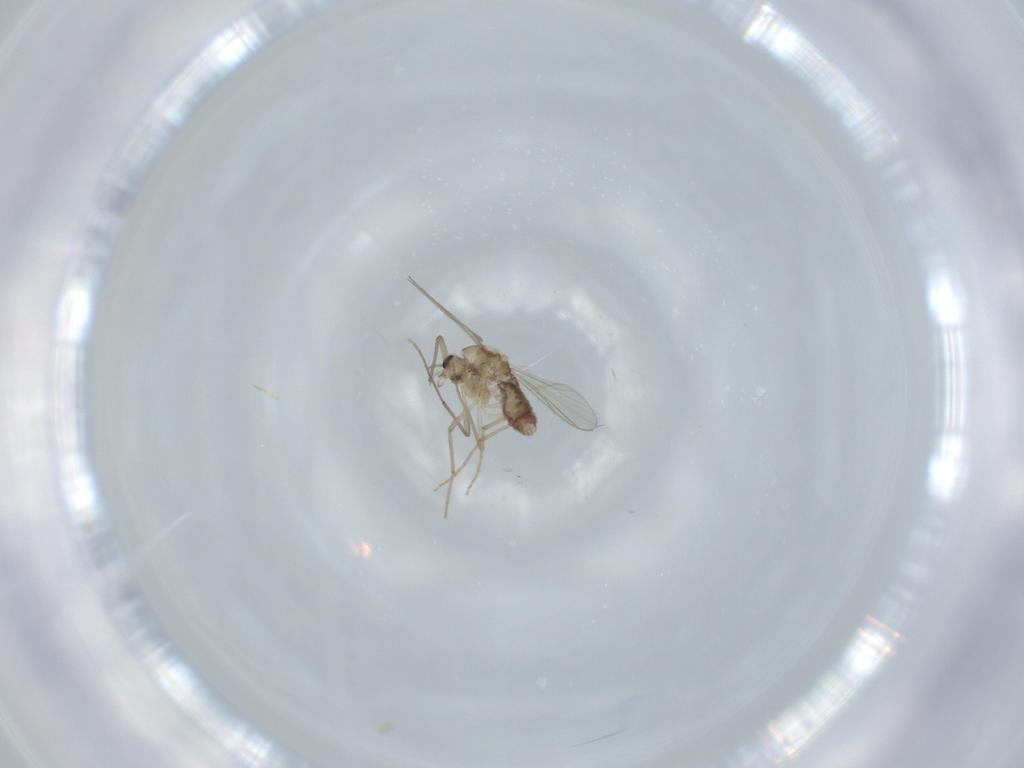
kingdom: Animalia
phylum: Arthropoda
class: Insecta
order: Diptera
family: Chironomidae
